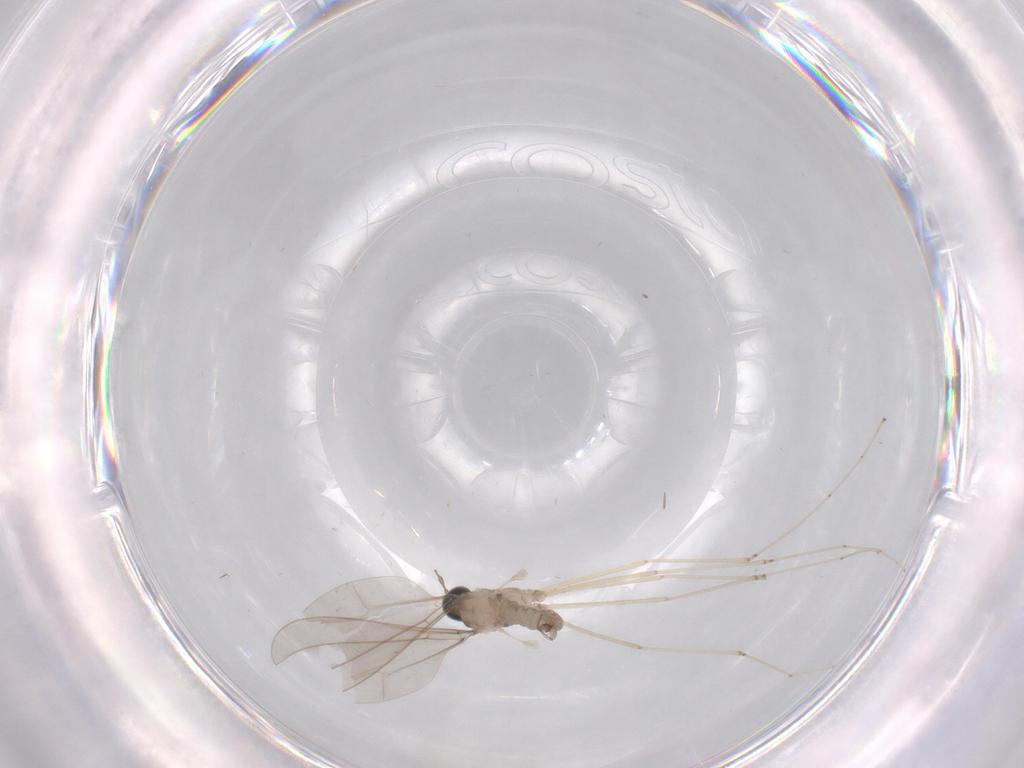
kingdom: Animalia
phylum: Arthropoda
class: Insecta
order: Diptera
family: Cecidomyiidae
